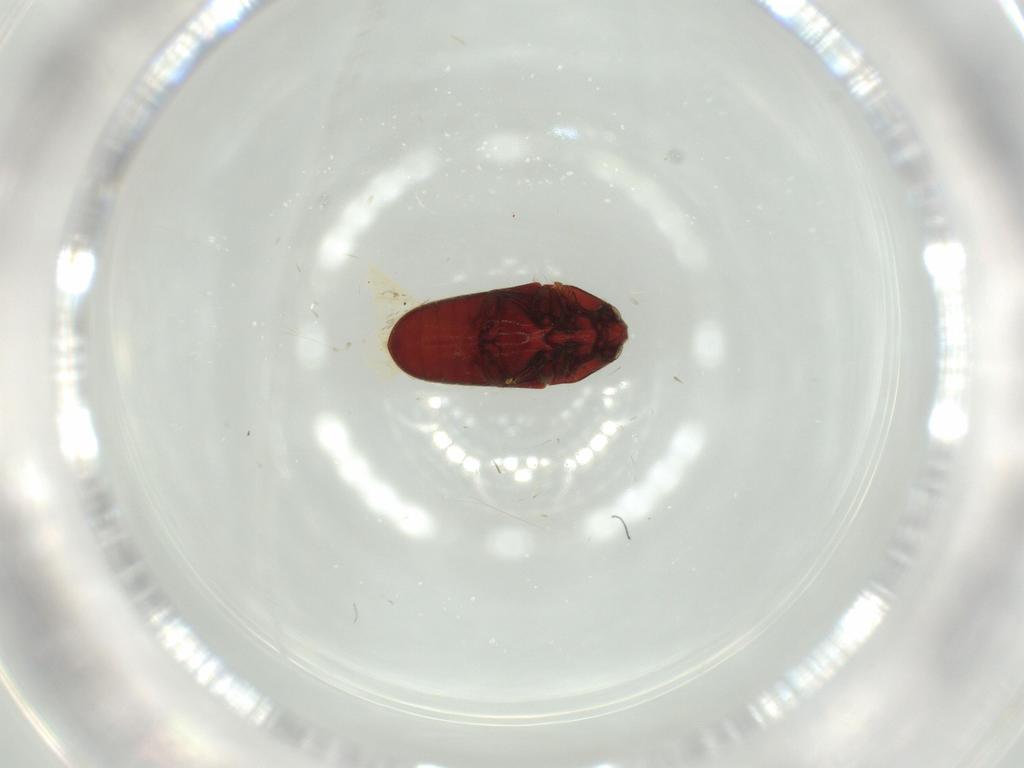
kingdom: Animalia
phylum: Arthropoda
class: Insecta
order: Coleoptera
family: Throscidae
